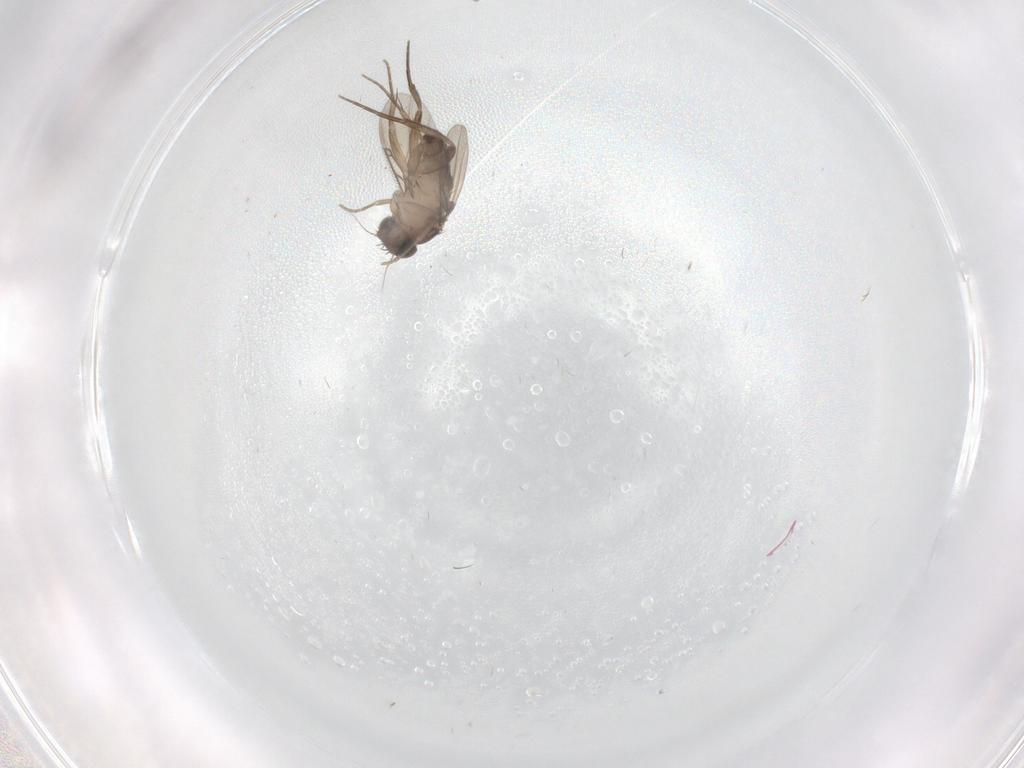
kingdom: Animalia
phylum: Arthropoda
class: Insecta
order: Diptera
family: Phoridae
